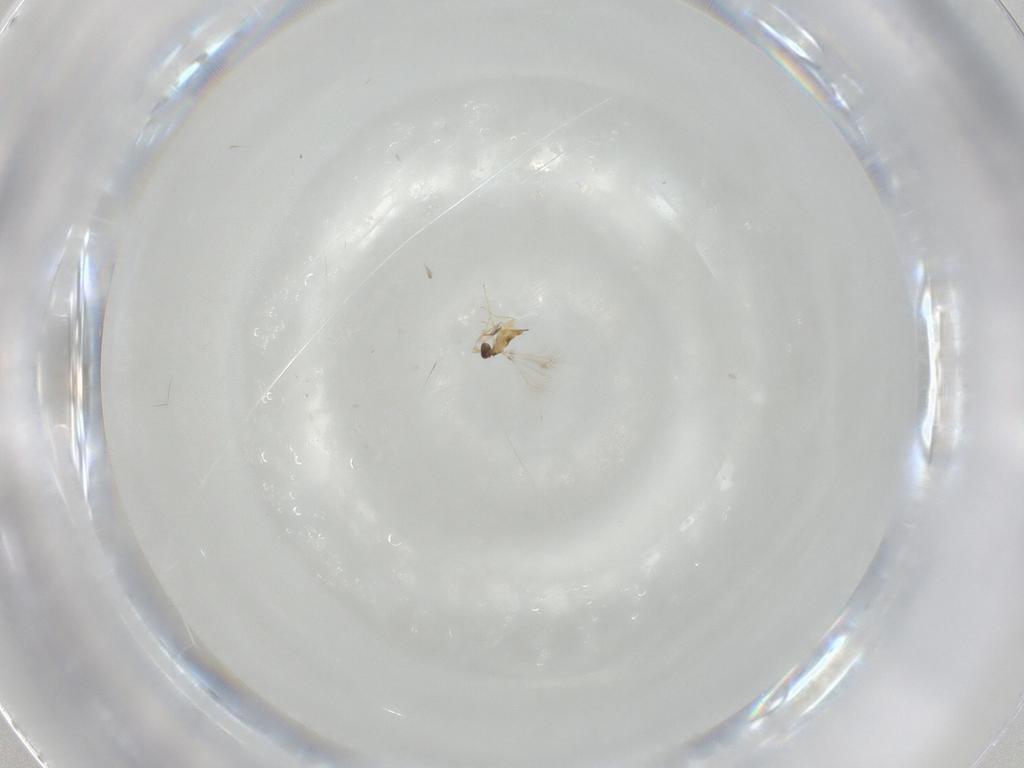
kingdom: Animalia
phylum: Arthropoda
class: Insecta
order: Hymenoptera
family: Mymaridae
